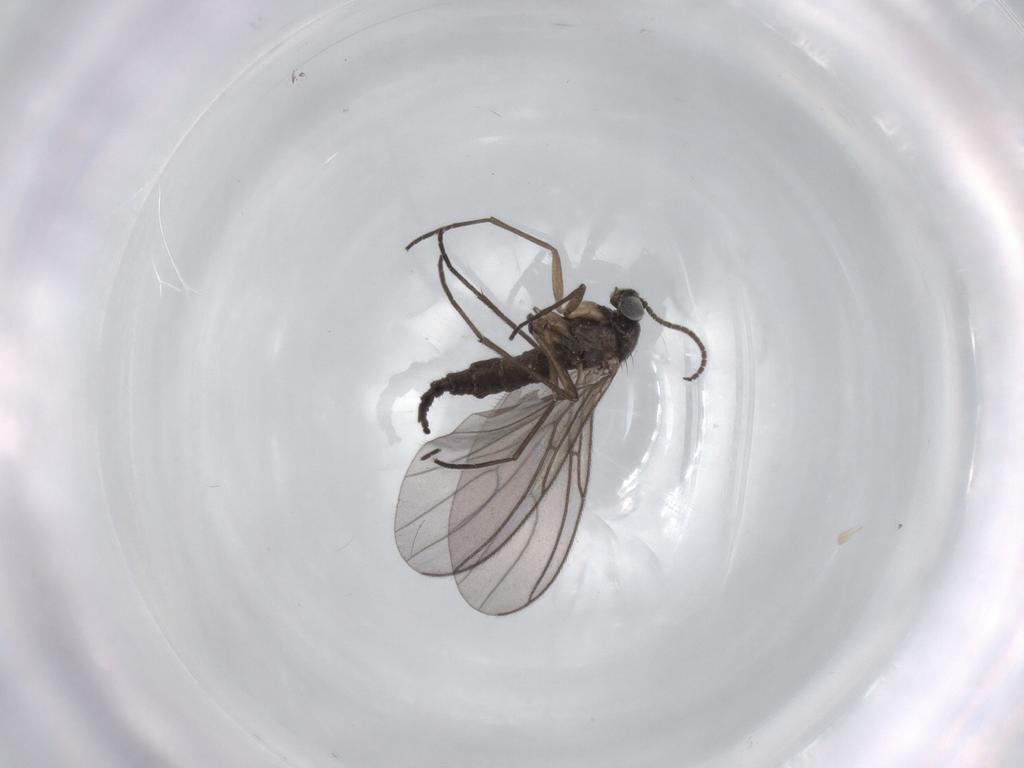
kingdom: Animalia
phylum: Arthropoda
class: Insecta
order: Diptera
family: Sciaridae
